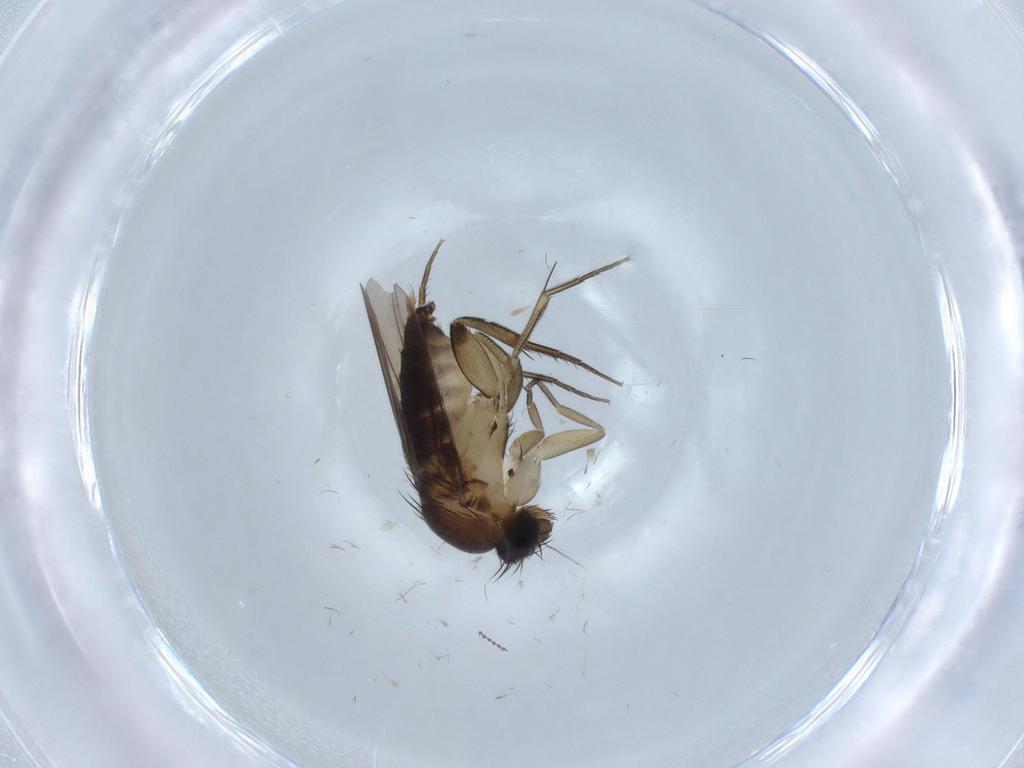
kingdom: Animalia
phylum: Arthropoda
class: Insecta
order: Diptera
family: Phoridae
